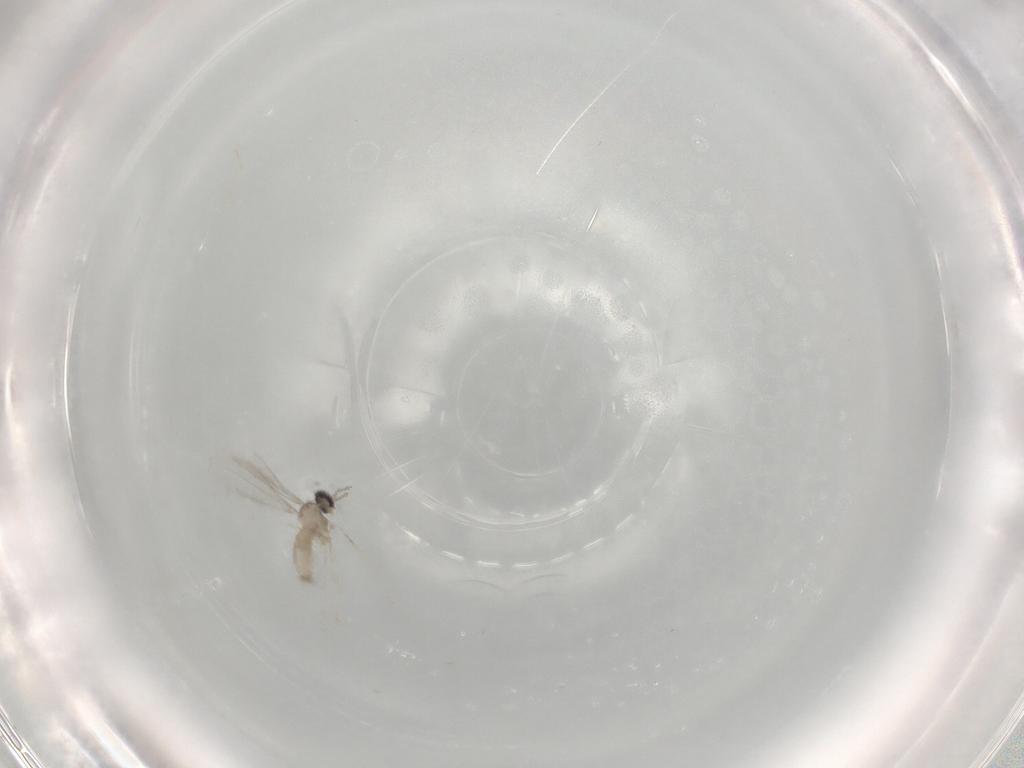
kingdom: Animalia
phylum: Arthropoda
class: Insecta
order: Diptera
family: Cecidomyiidae
